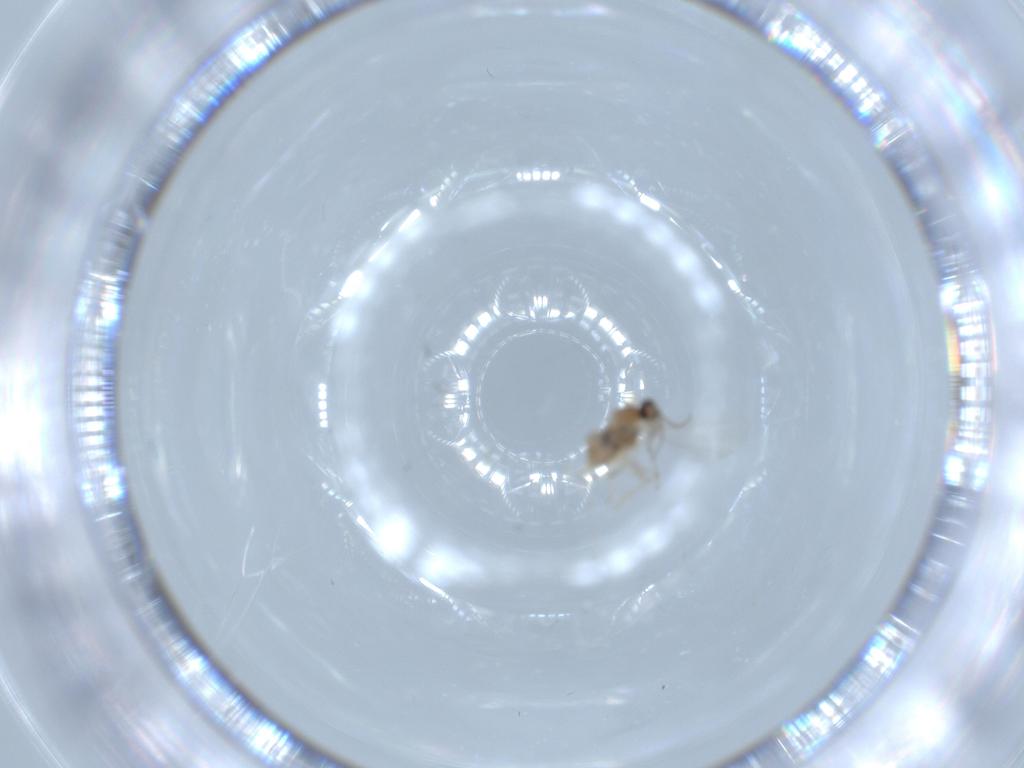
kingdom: Animalia
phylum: Arthropoda
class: Insecta
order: Diptera
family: Cecidomyiidae
